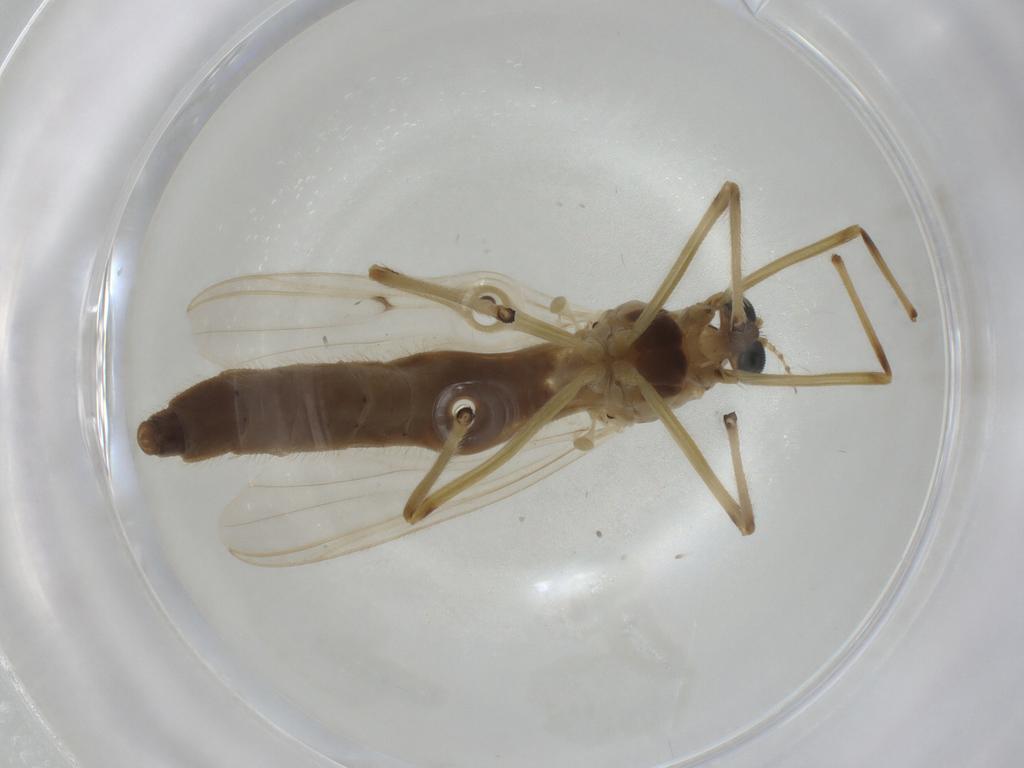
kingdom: Animalia
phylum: Arthropoda
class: Insecta
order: Diptera
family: Chironomidae
